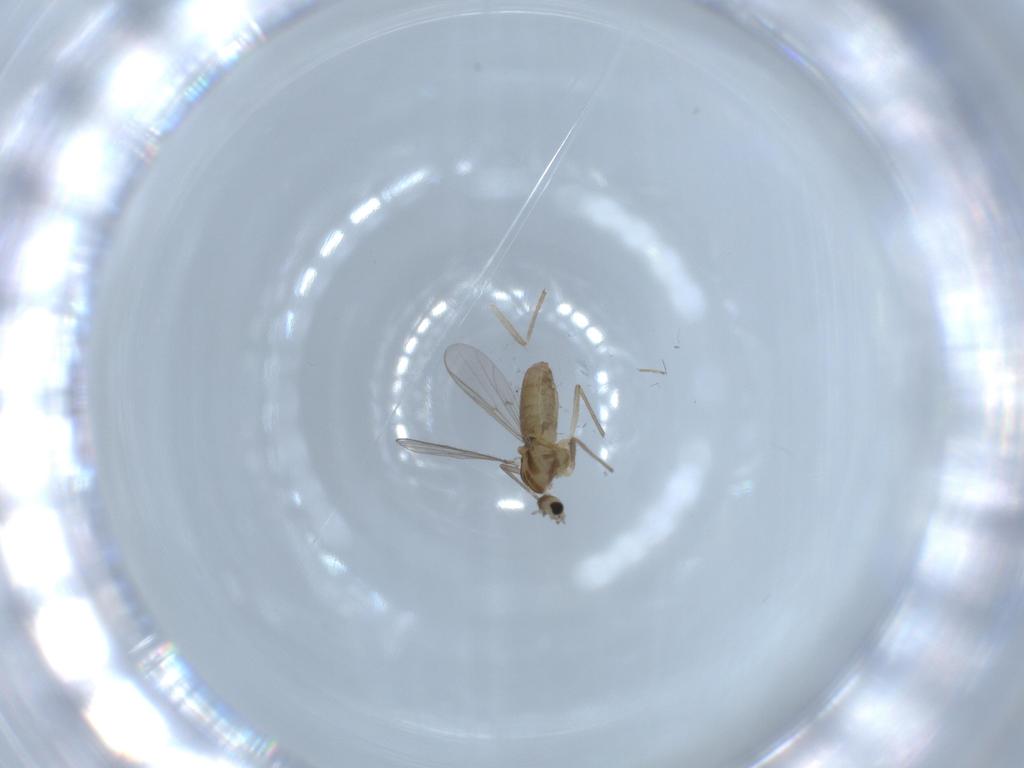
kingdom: Animalia
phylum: Arthropoda
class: Insecta
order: Diptera
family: Chironomidae
